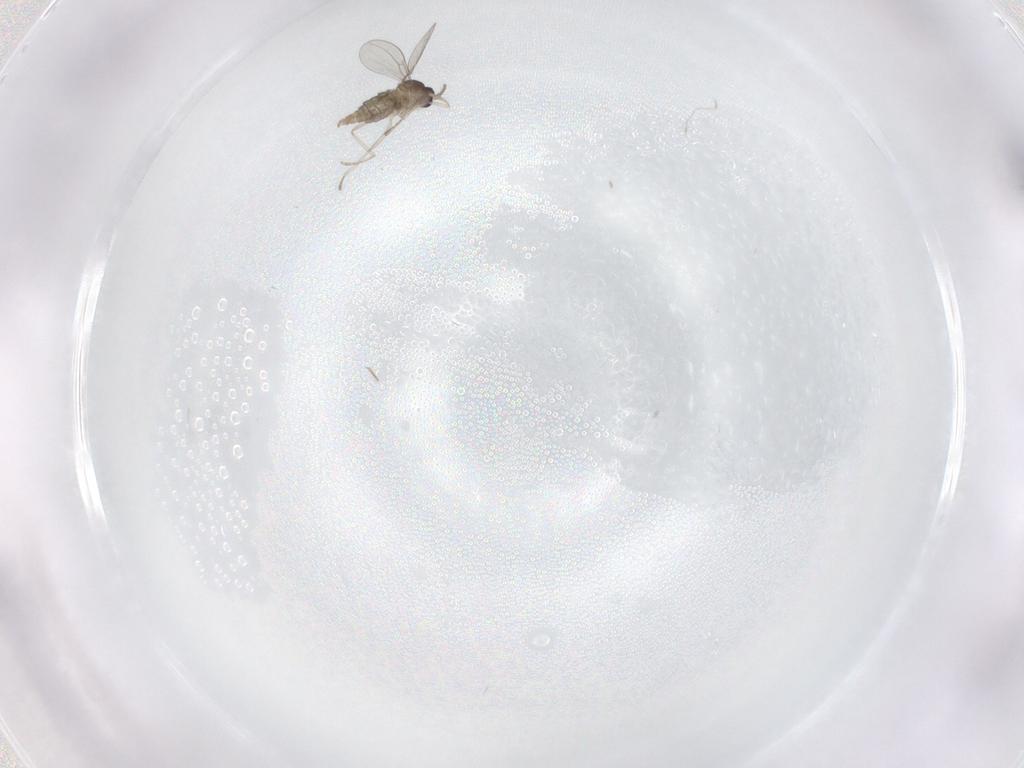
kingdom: Animalia
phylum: Arthropoda
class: Insecta
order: Diptera
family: Cecidomyiidae
